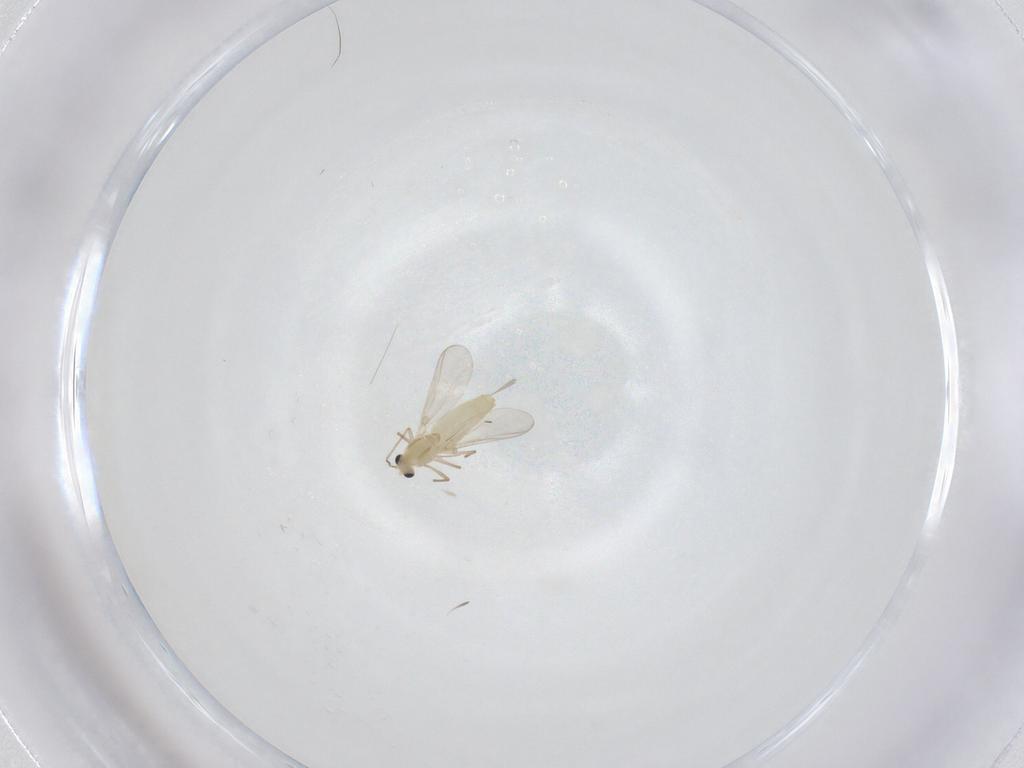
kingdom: Animalia
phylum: Arthropoda
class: Insecta
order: Diptera
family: Chironomidae
